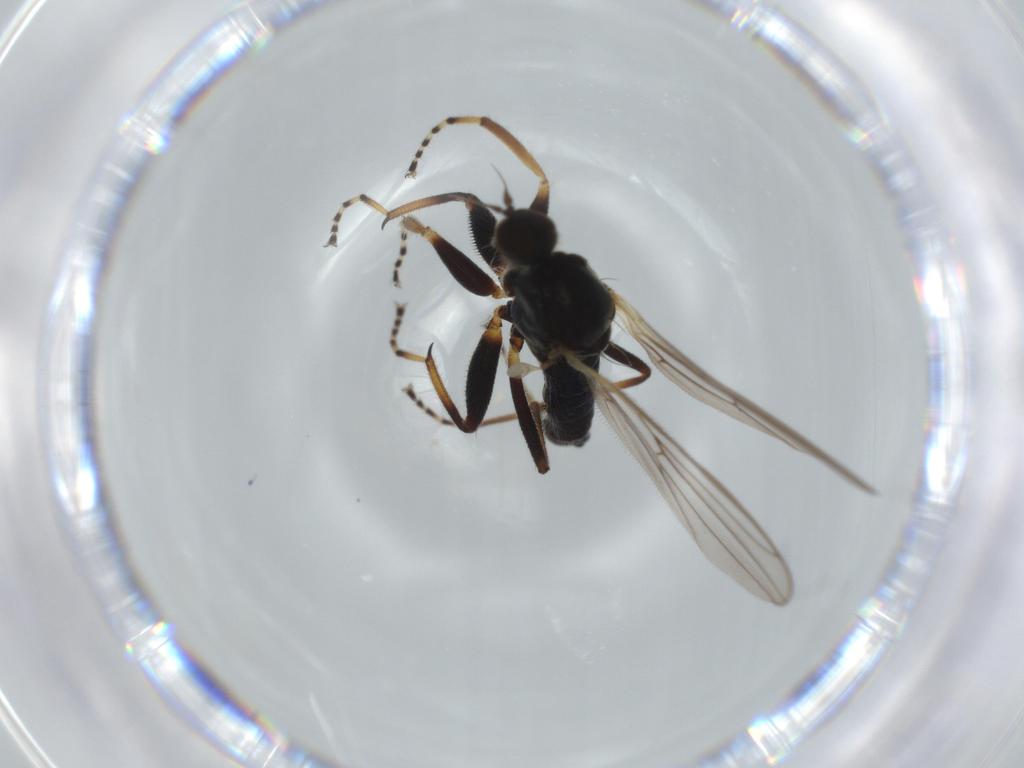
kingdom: Animalia
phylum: Arthropoda
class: Insecta
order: Diptera
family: Hybotidae
